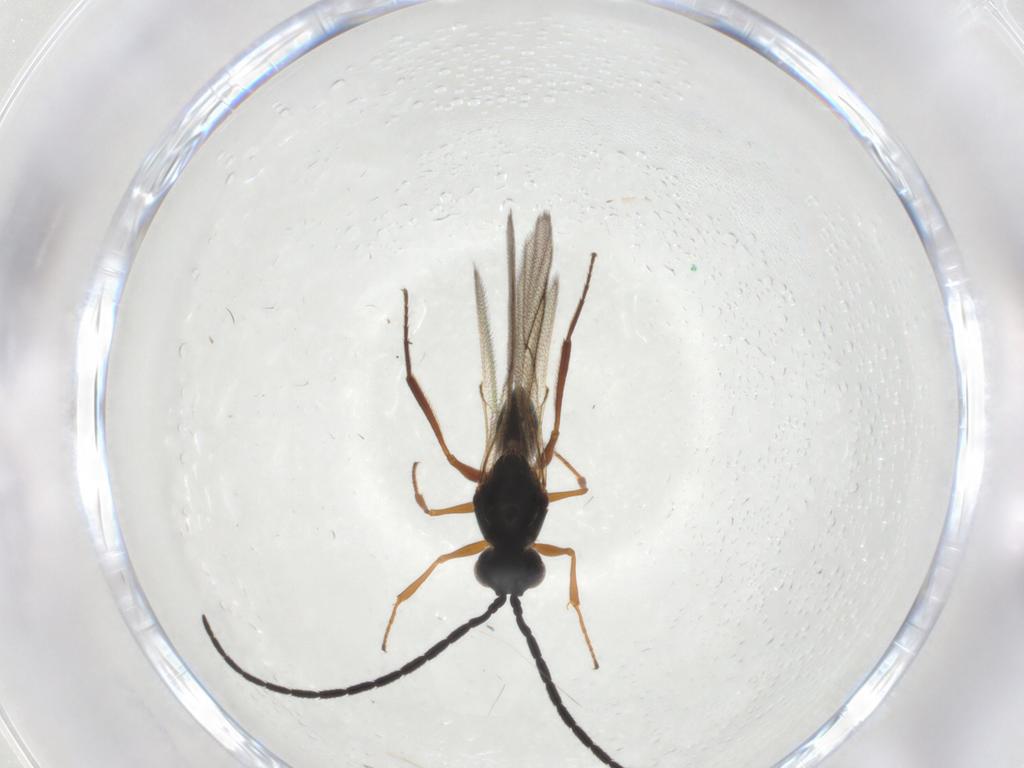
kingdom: Animalia
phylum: Arthropoda
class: Insecta
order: Hymenoptera
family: Figitidae
